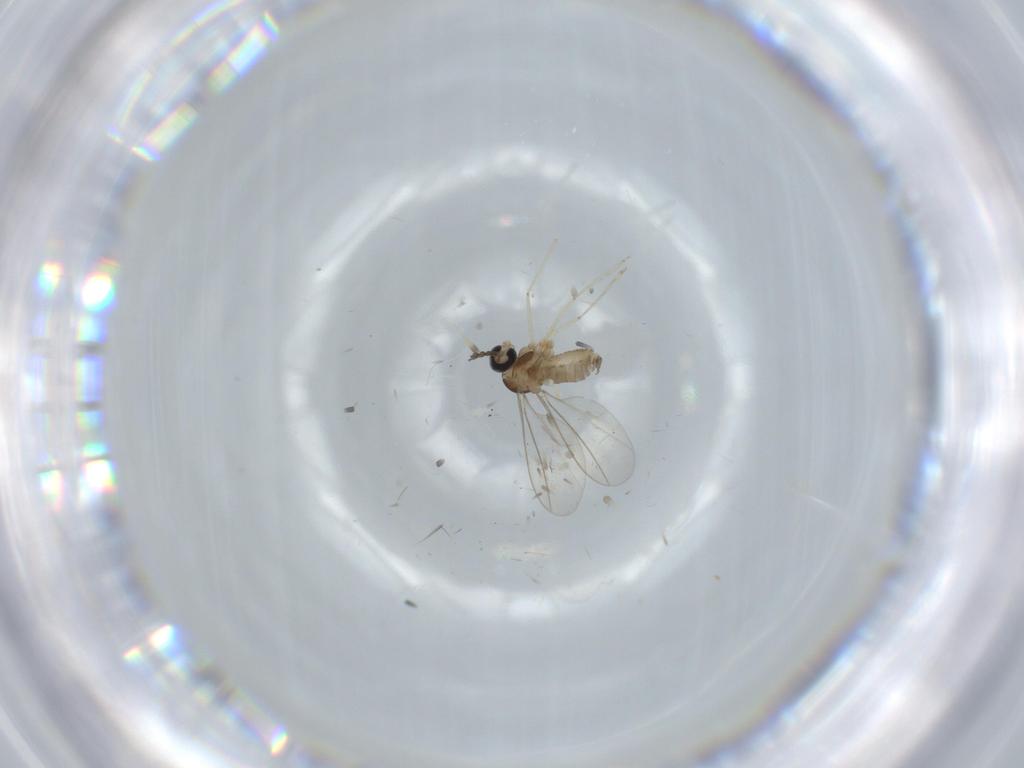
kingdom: Animalia
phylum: Arthropoda
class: Insecta
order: Diptera
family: Cecidomyiidae
